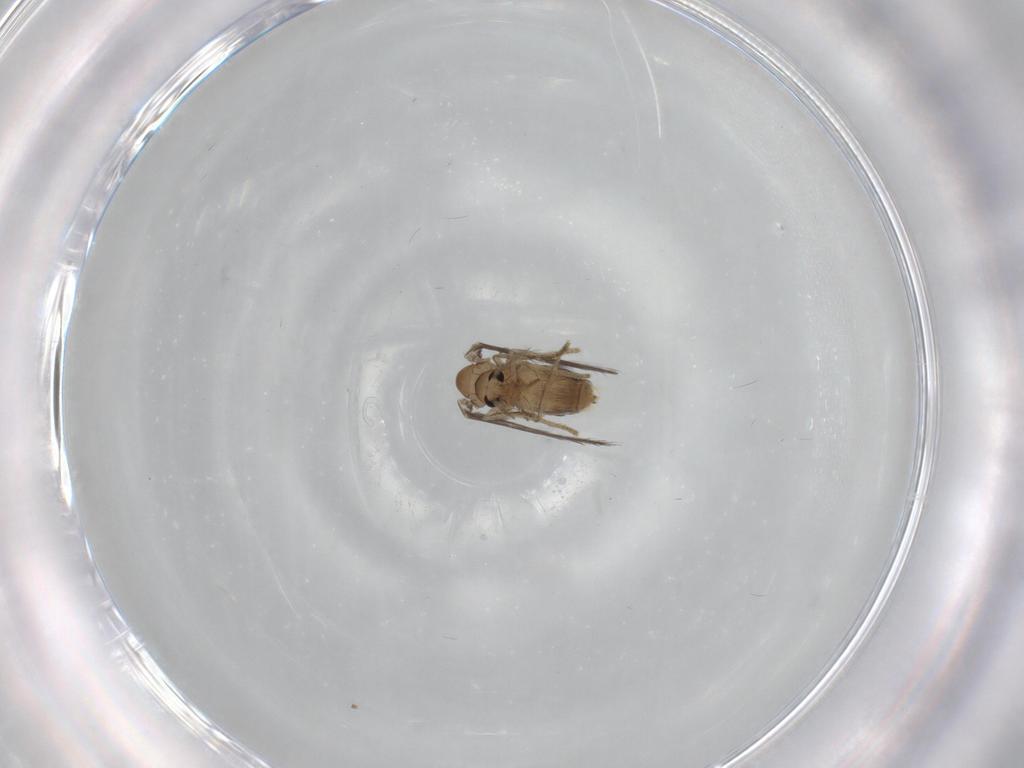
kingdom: Animalia
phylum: Arthropoda
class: Insecta
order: Diptera
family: Psychodidae
